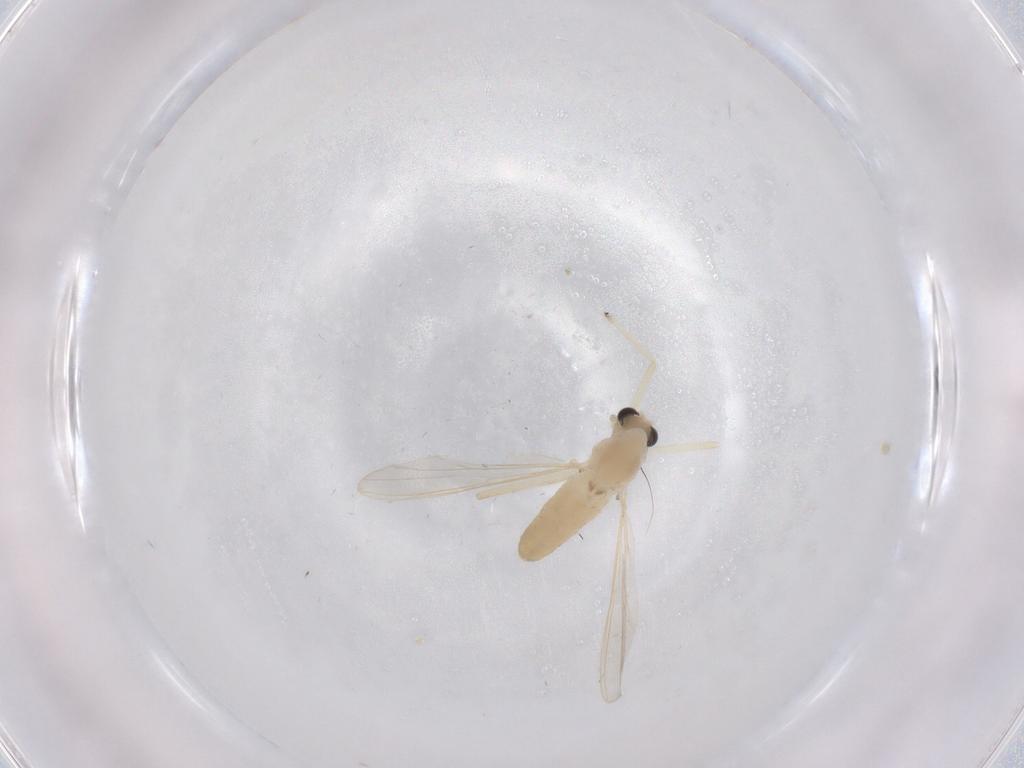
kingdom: Animalia
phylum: Arthropoda
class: Insecta
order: Diptera
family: Chironomidae
